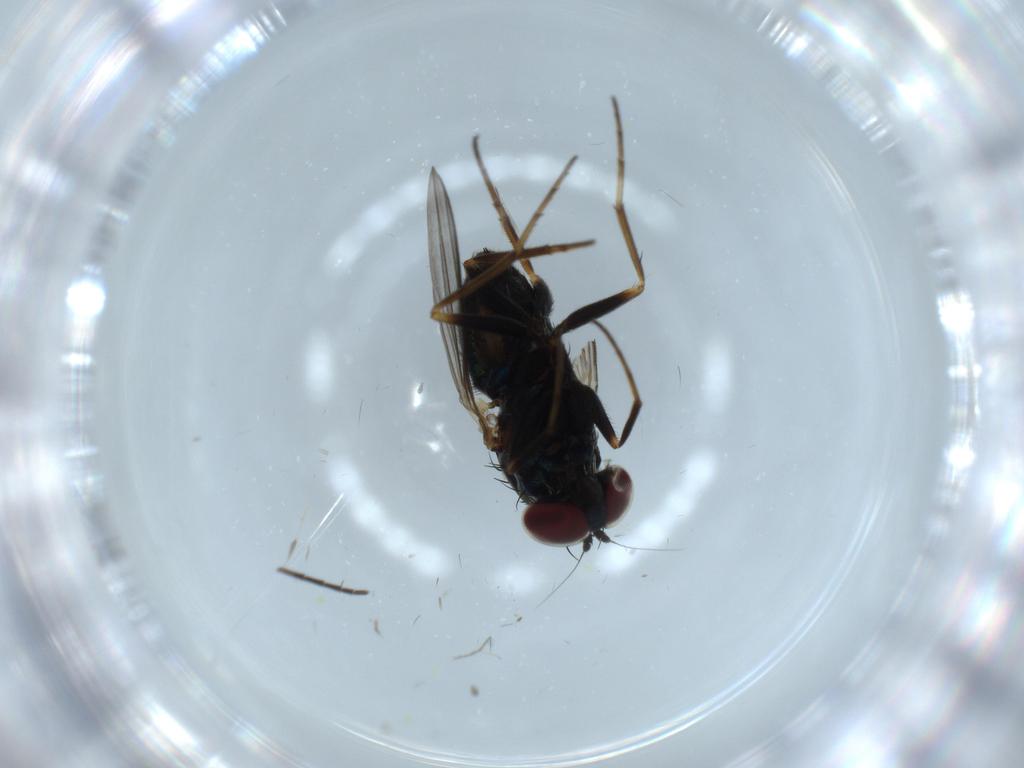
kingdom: Animalia
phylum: Arthropoda
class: Insecta
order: Diptera
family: Dolichopodidae
